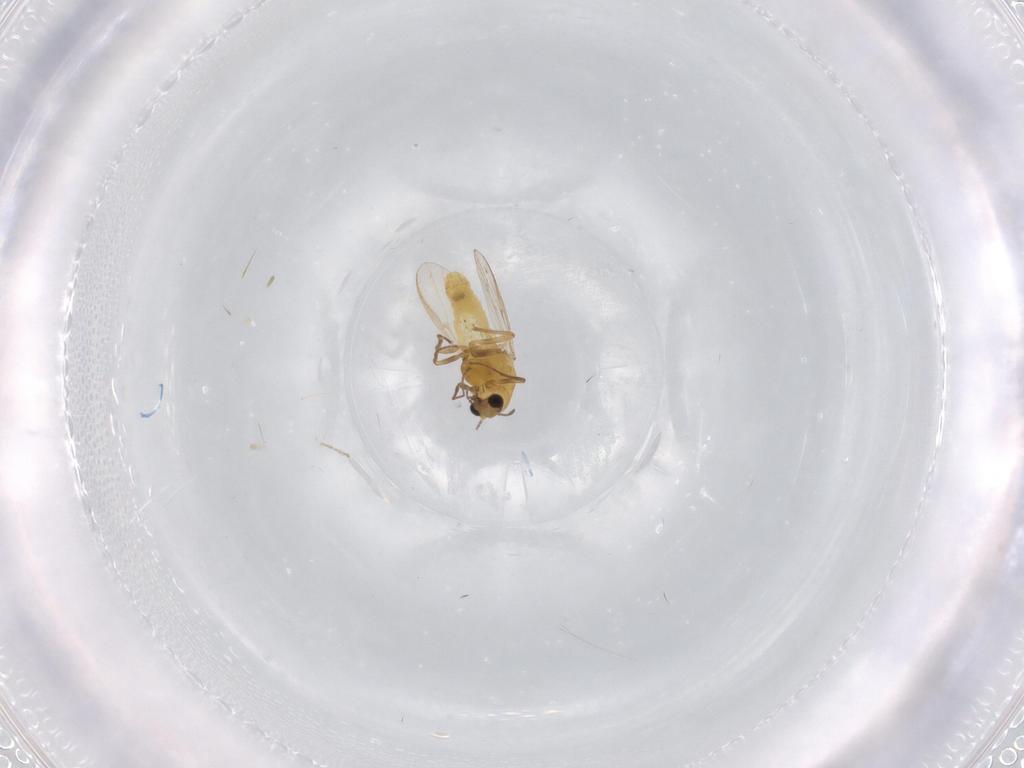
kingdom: Animalia
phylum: Arthropoda
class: Insecta
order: Diptera
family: Chironomidae
